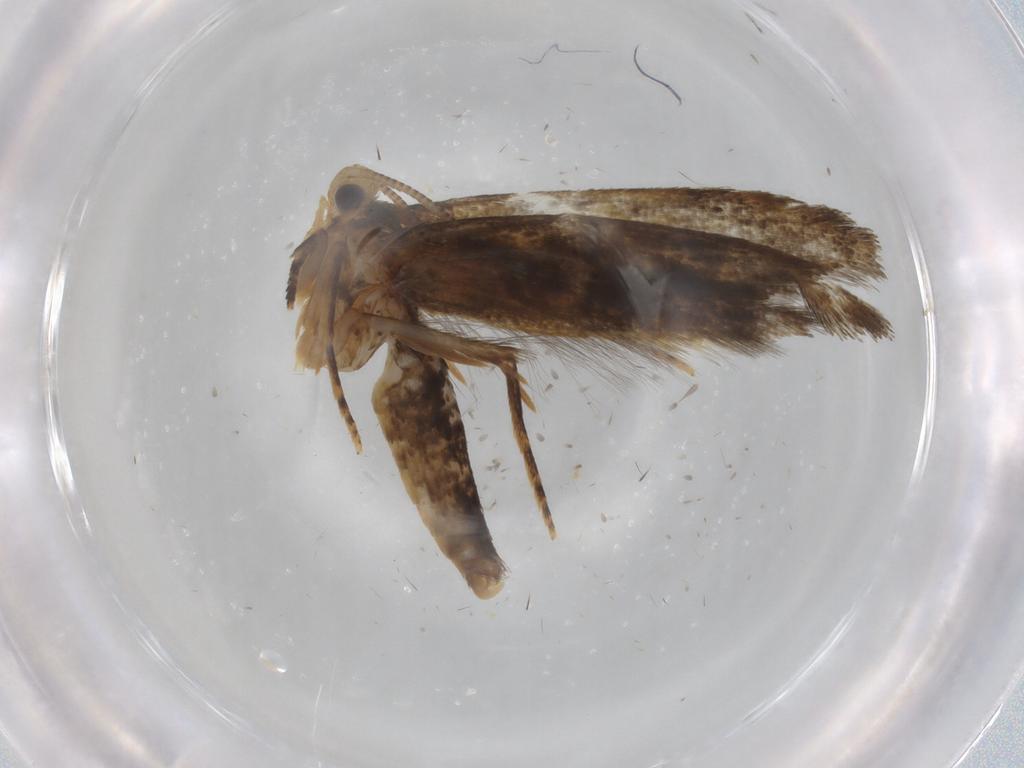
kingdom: Animalia
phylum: Arthropoda
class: Insecta
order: Lepidoptera
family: Tineidae
